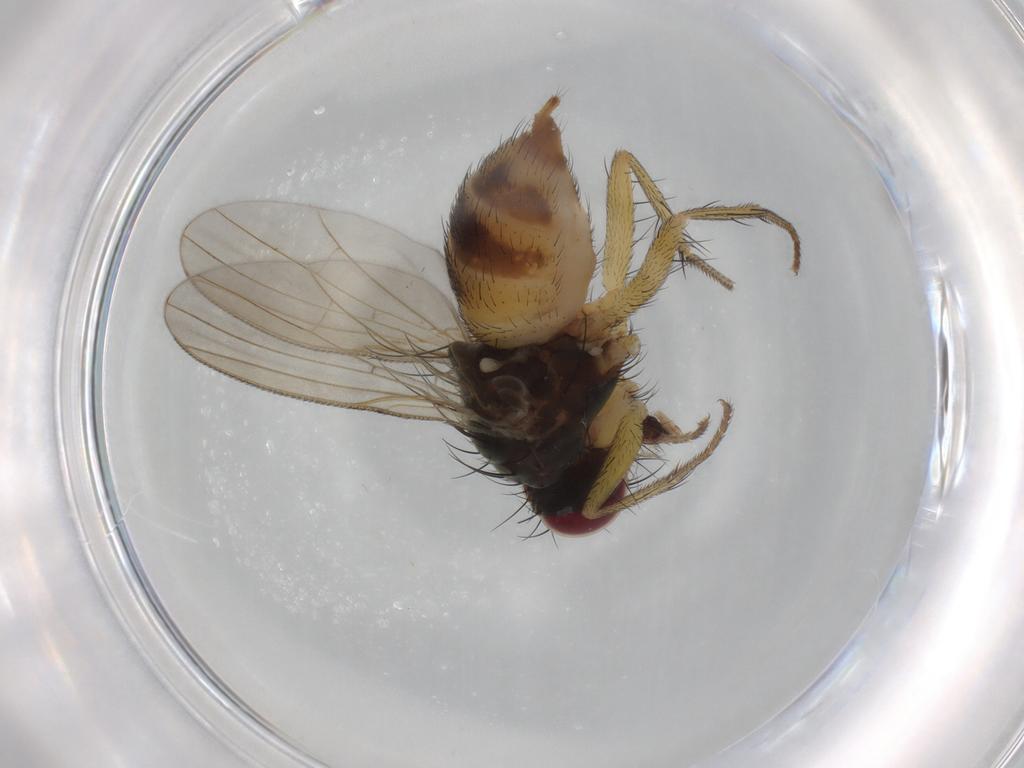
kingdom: Animalia
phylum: Arthropoda
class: Insecta
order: Diptera
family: Muscidae
